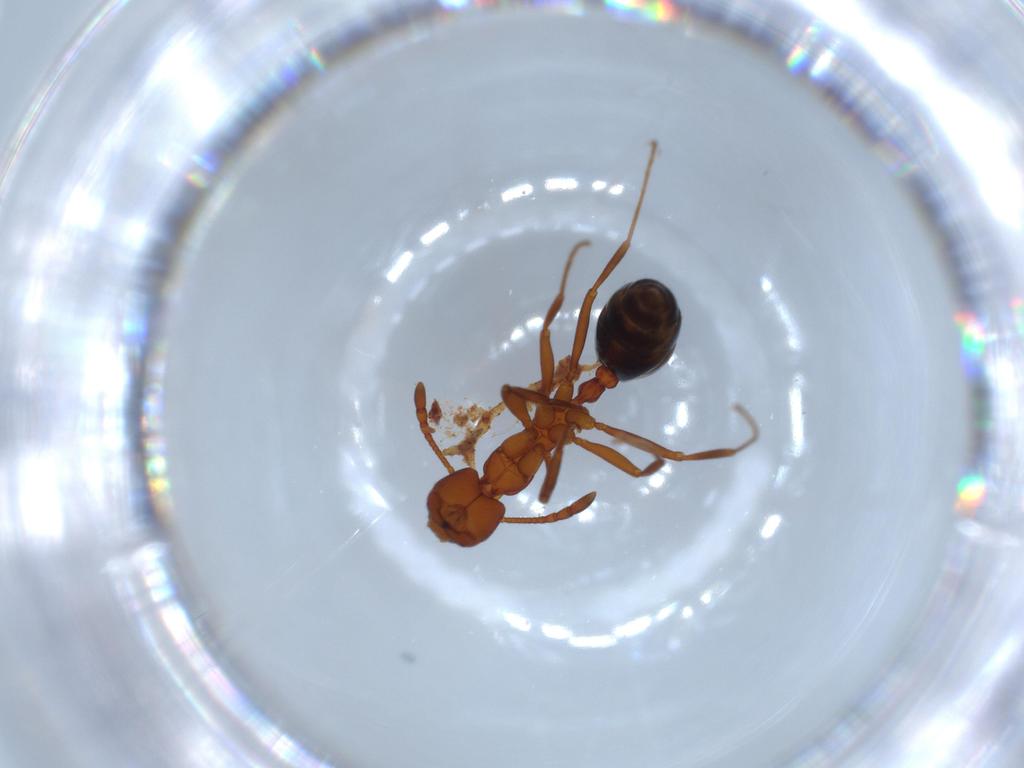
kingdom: Animalia
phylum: Arthropoda
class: Insecta
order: Hymenoptera
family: Formicidae
